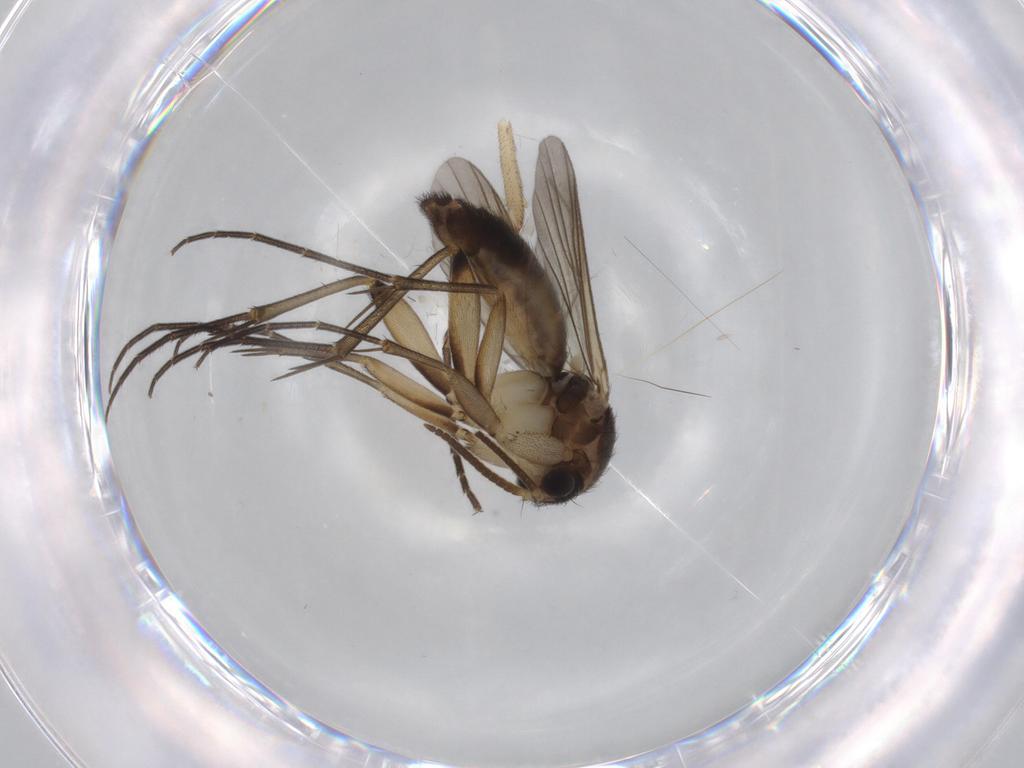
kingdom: Animalia
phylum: Arthropoda
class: Insecta
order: Diptera
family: Mycetophilidae
